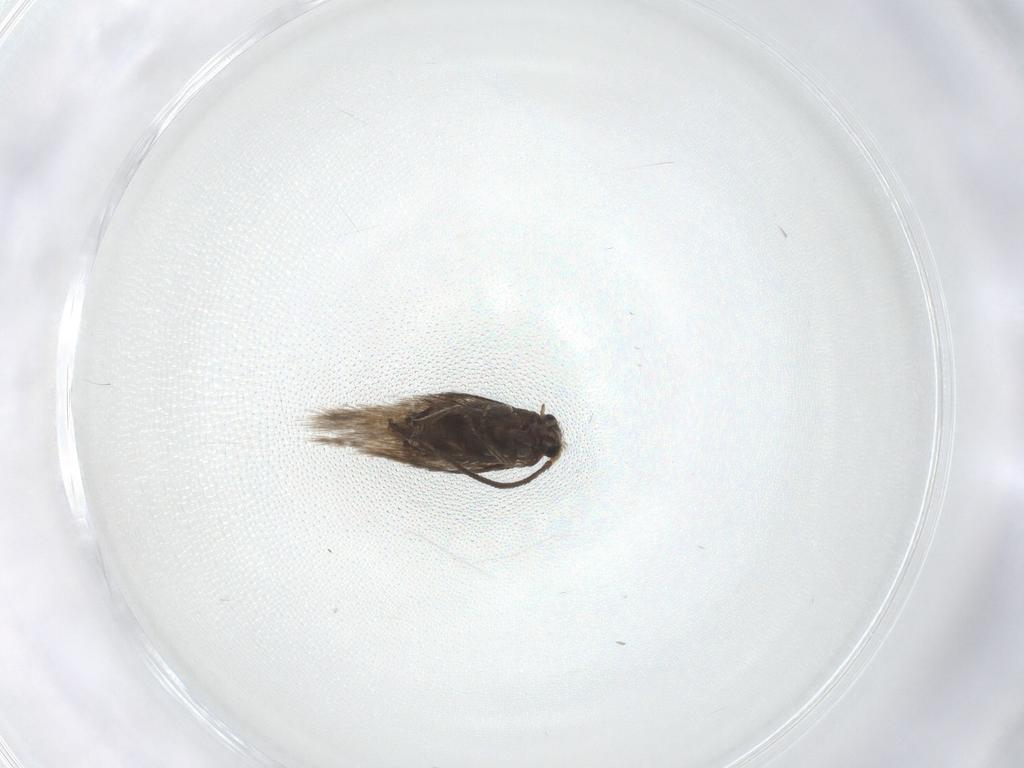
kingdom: Animalia
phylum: Arthropoda
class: Insecta
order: Lepidoptera
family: Nepticulidae
